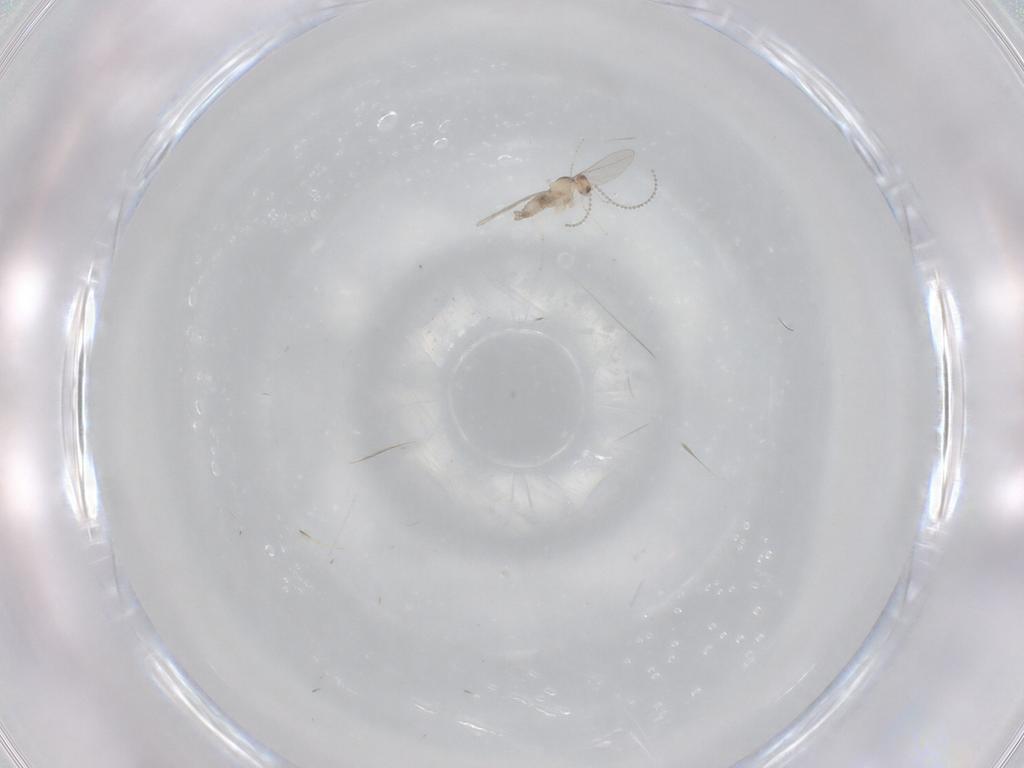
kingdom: Animalia
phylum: Arthropoda
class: Insecta
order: Diptera
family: Cecidomyiidae
